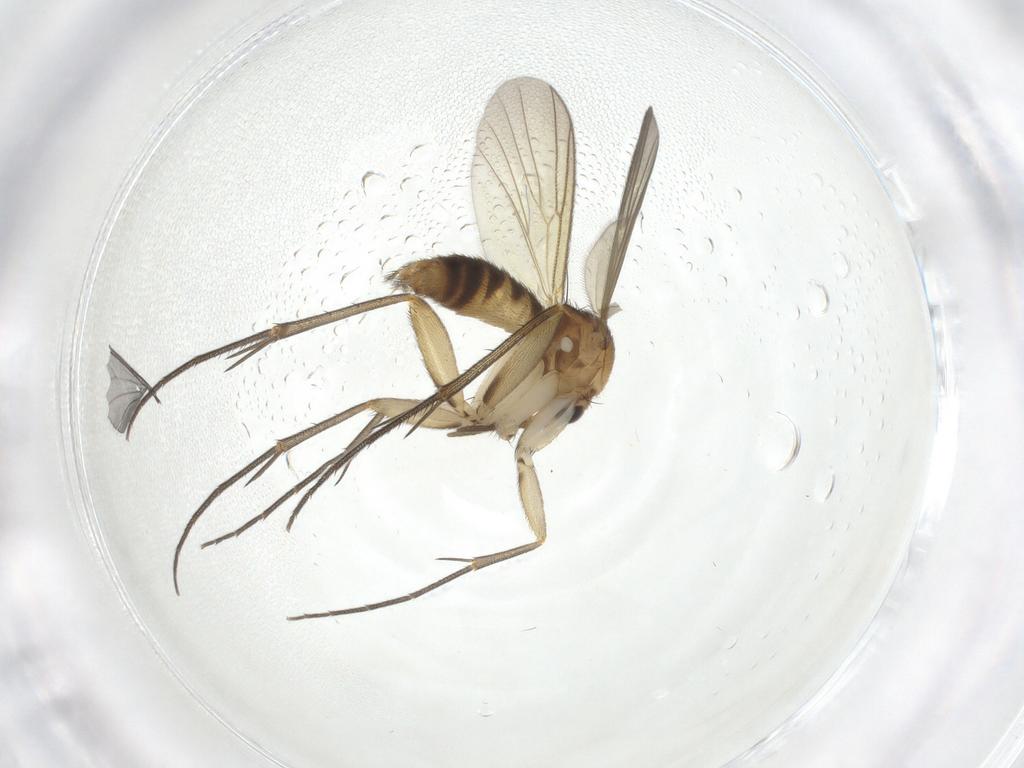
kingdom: Animalia
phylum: Arthropoda
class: Insecta
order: Diptera
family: Mycetophilidae
